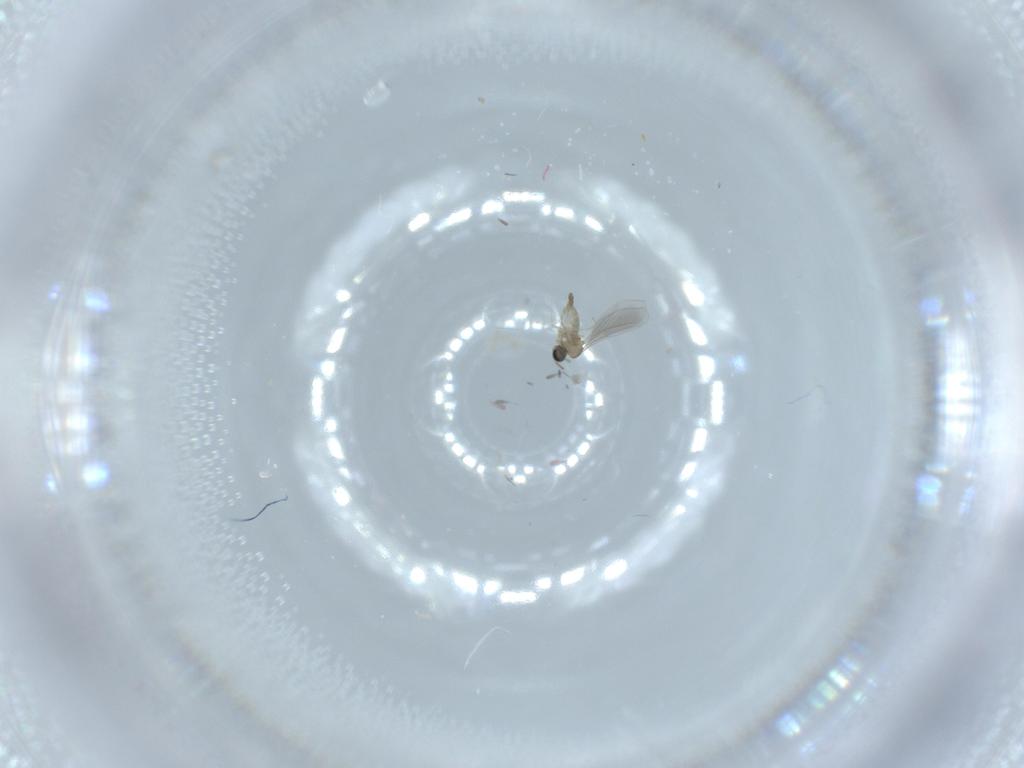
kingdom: Animalia
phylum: Arthropoda
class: Insecta
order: Diptera
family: Cecidomyiidae
